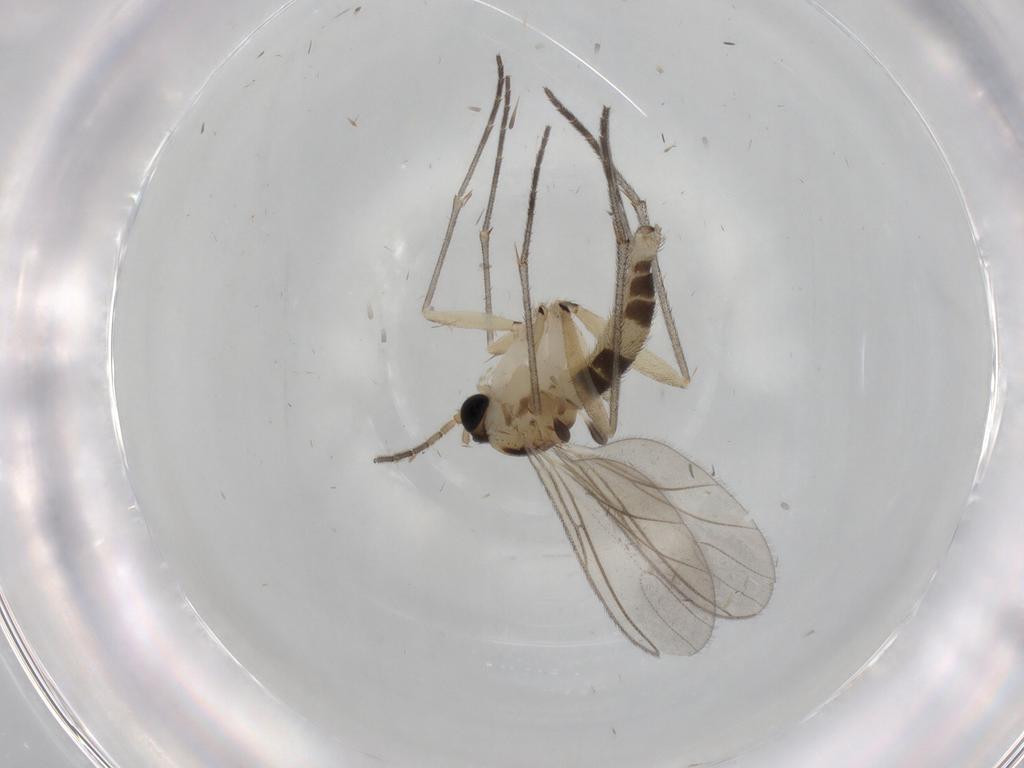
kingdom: Animalia
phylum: Arthropoda
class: Insecta
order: Diptera
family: Sciaridae
